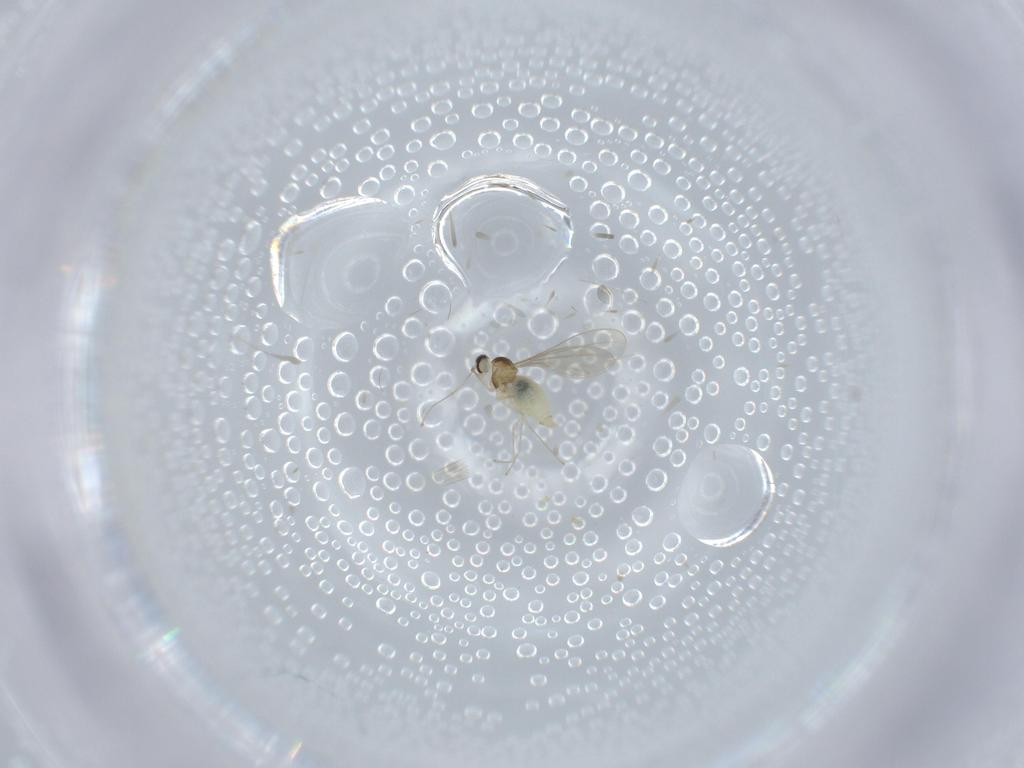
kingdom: Animalia
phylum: Arthropoda
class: Insecta
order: Diptera
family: Cecidomyiidae
